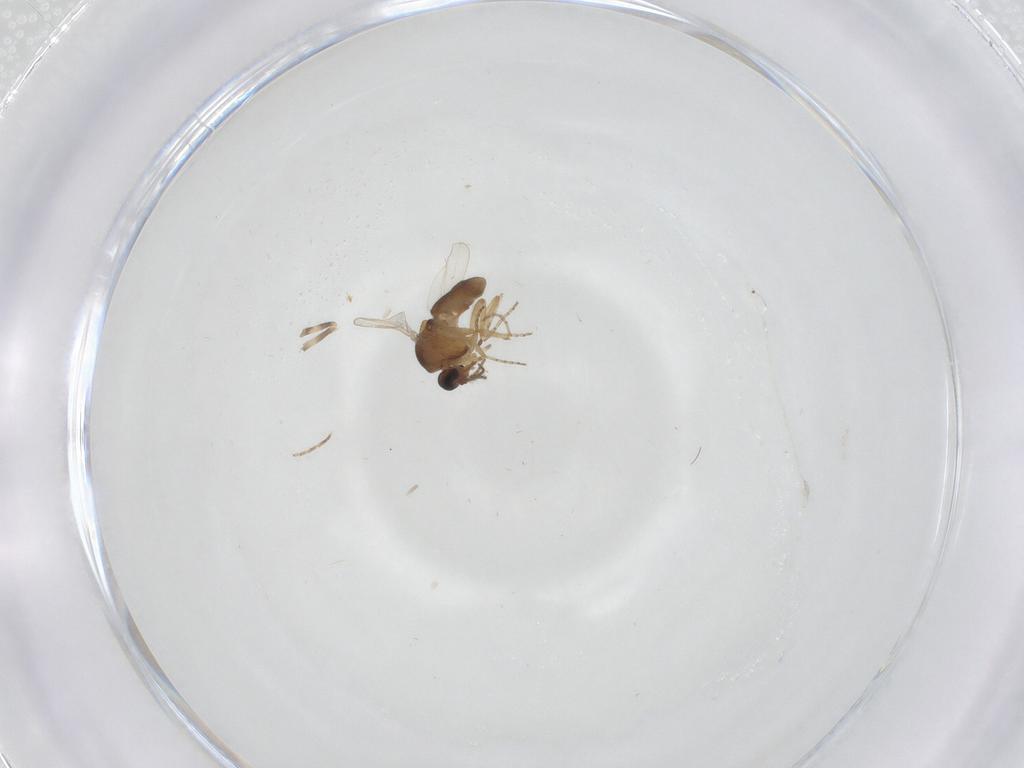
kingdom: Animalia
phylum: Arthropoda
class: Insecta
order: Diptera
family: Ceratopogonidae
